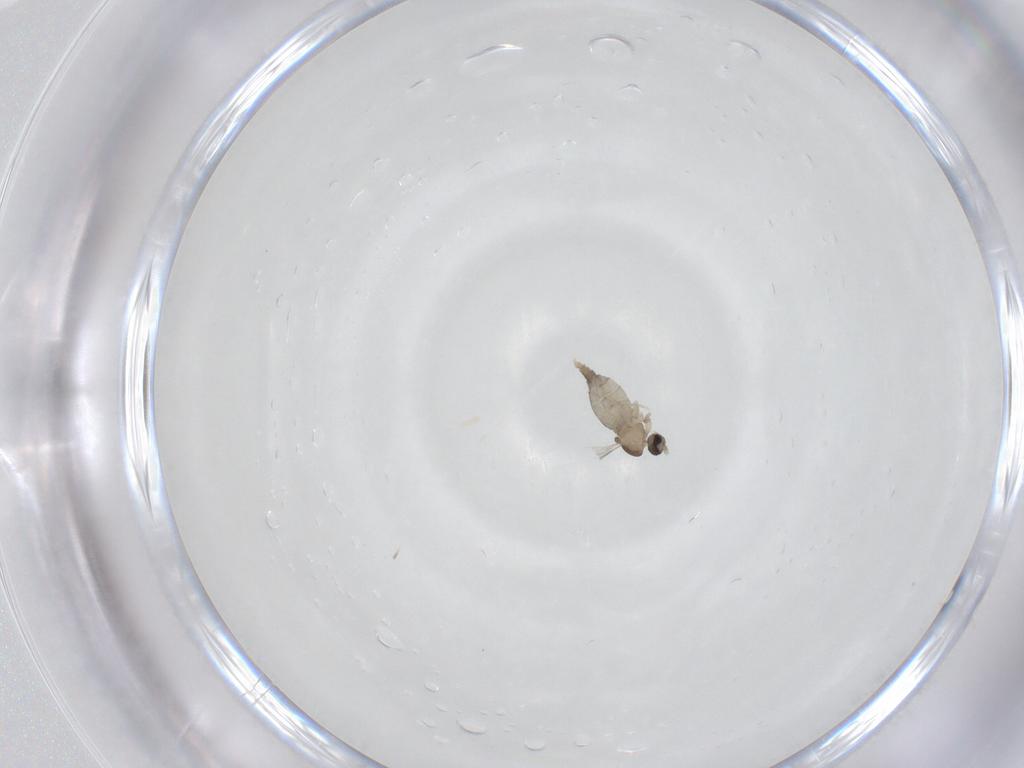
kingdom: Animalia
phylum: Arthropoda
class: Insecta
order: Diptera
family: Cecidomyiidae
